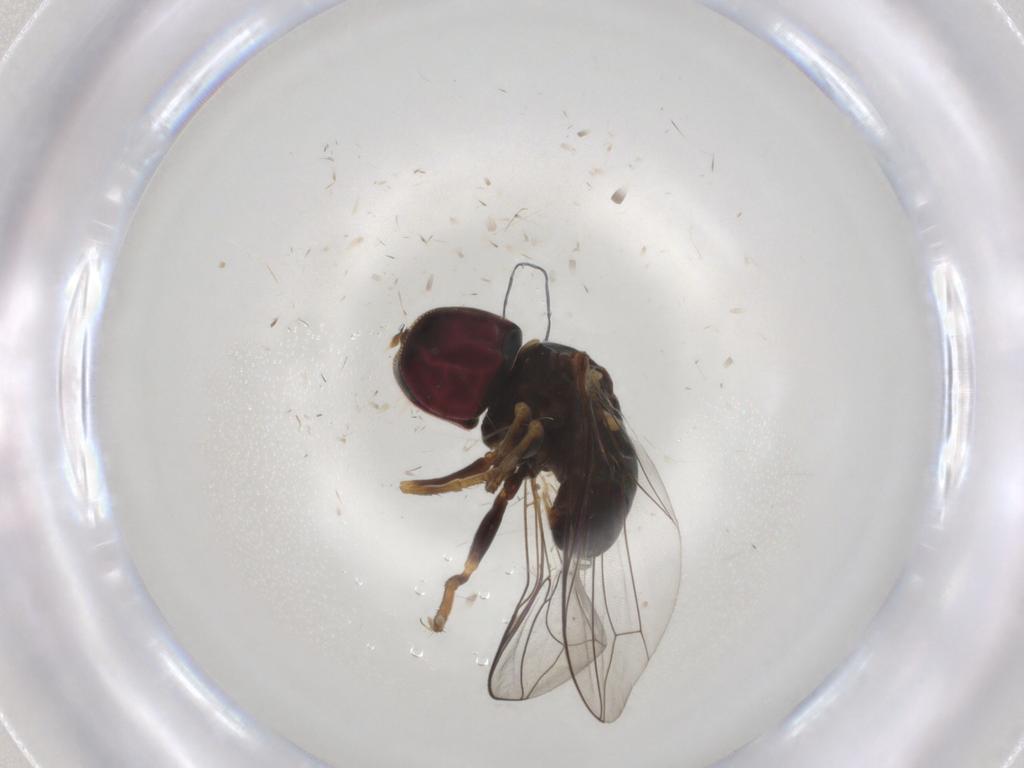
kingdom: Animalia
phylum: Arthropoda
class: Insecta
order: Diptera
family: Pipunculidae
